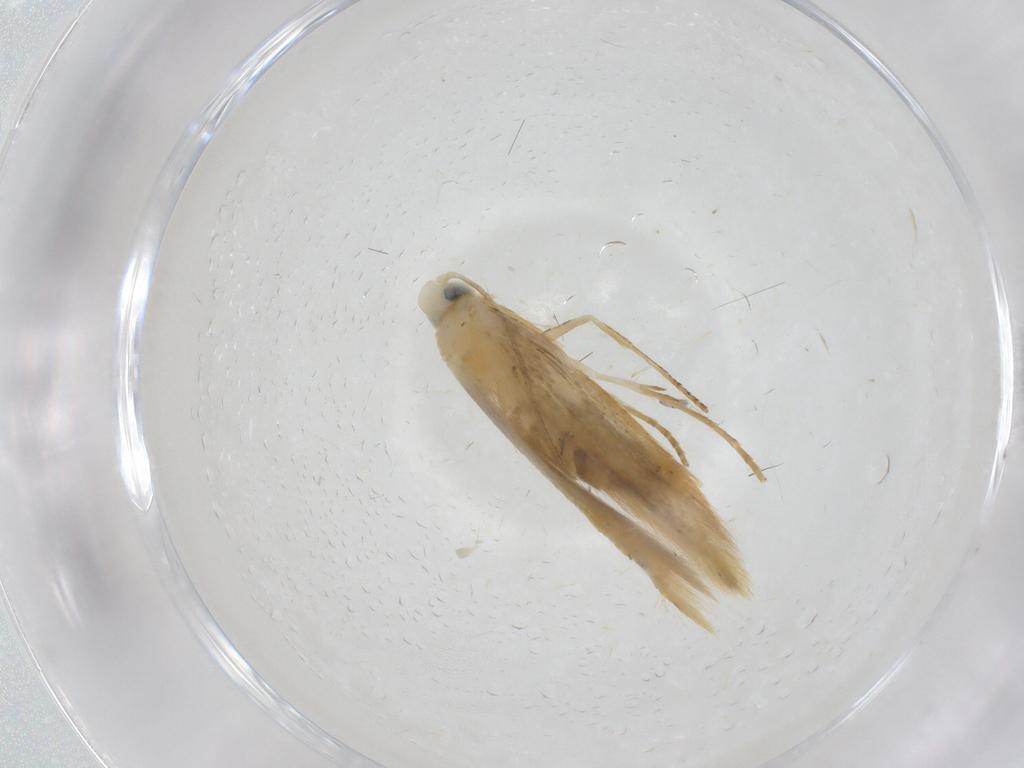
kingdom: Animalia
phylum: Arthropoda
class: Insecta
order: Lepidoptera
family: Tineidae
